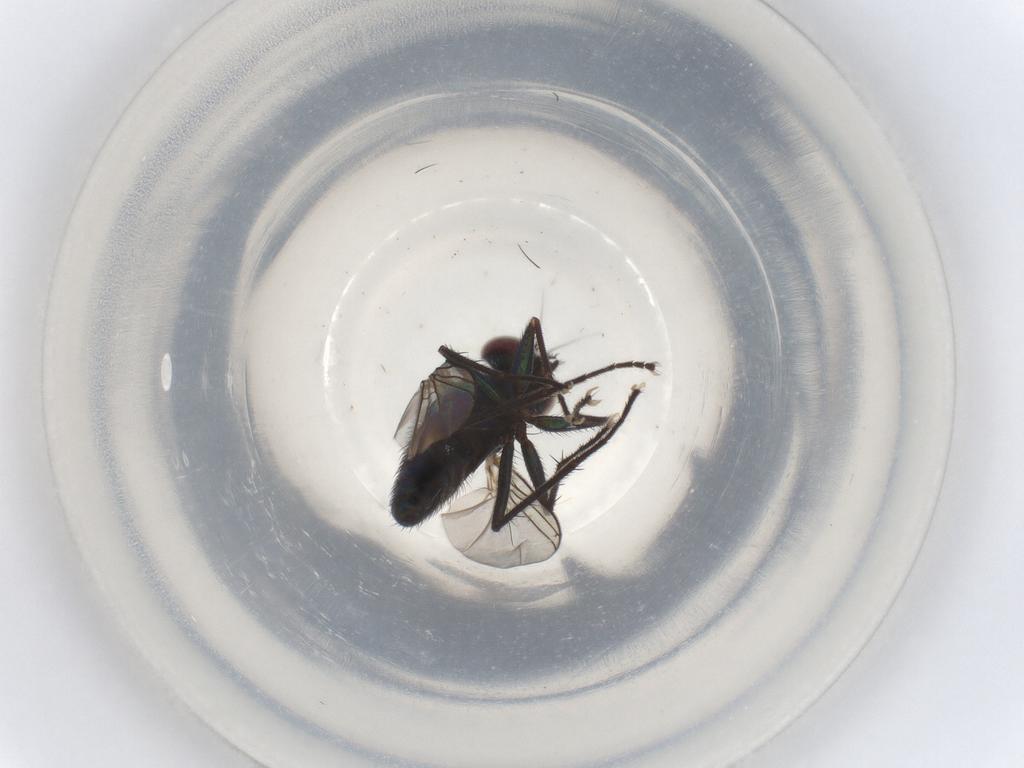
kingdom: Animalia
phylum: Arthropoda
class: Insecta
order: Diptera
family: Dolichopodidae
